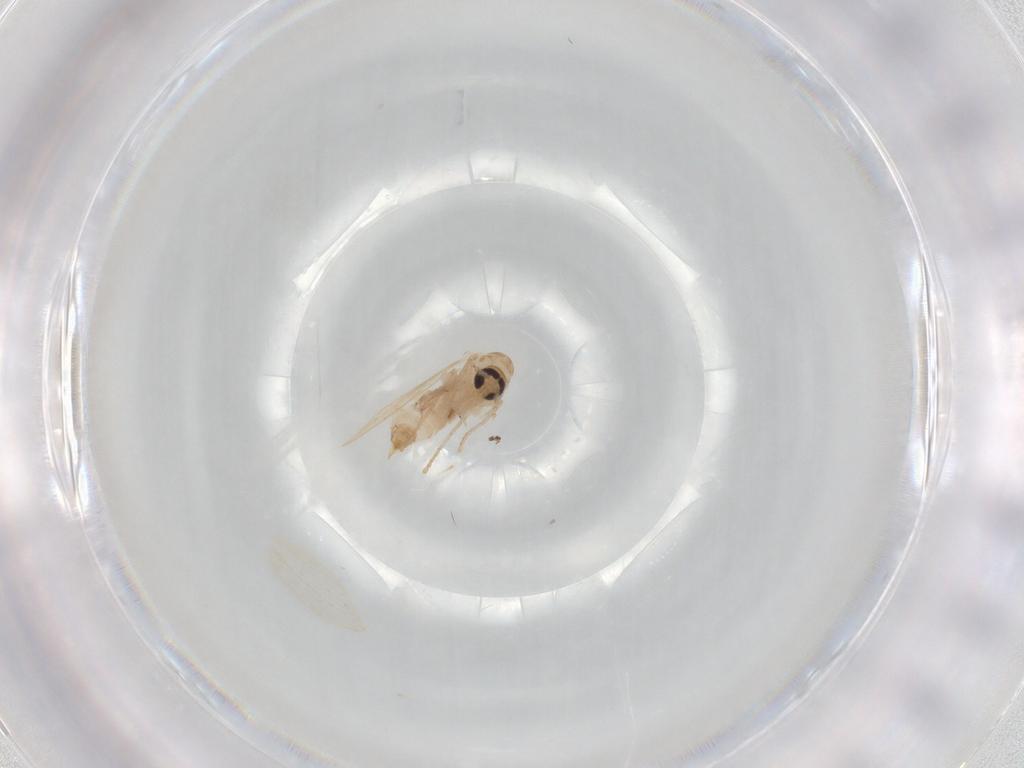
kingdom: Animalia
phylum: Arthropoda
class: Insecta
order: Diptera
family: Psychodidae
